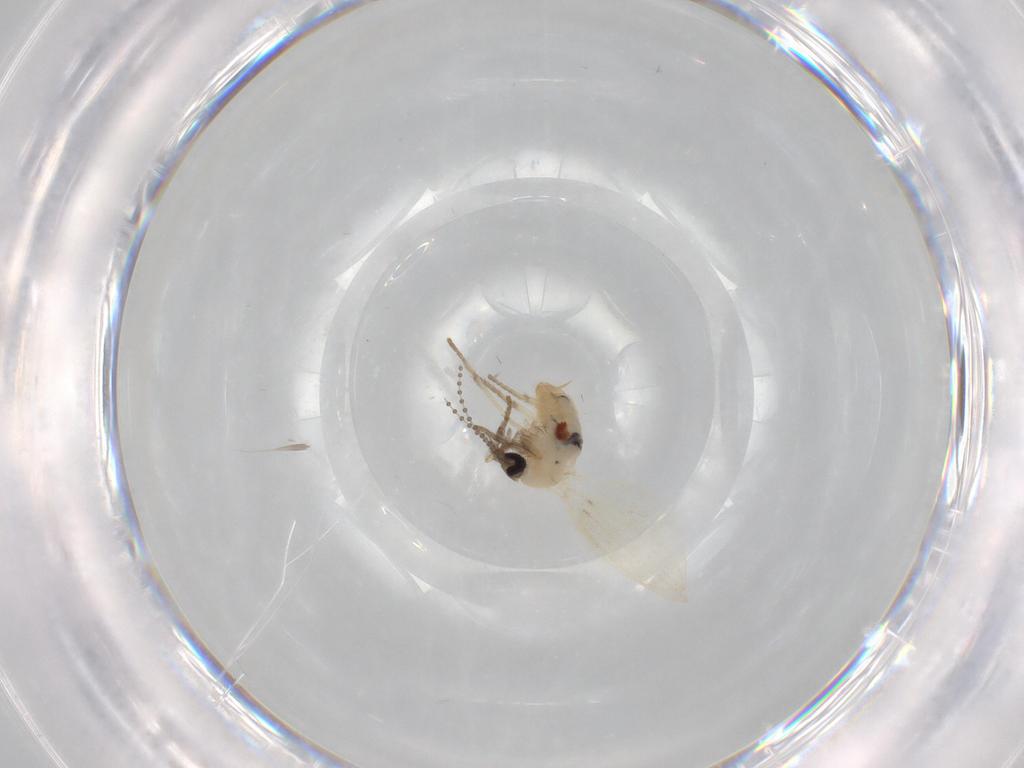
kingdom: Animalia
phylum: Arthropoda
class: Insecta
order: Diptera
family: Psychodidae
